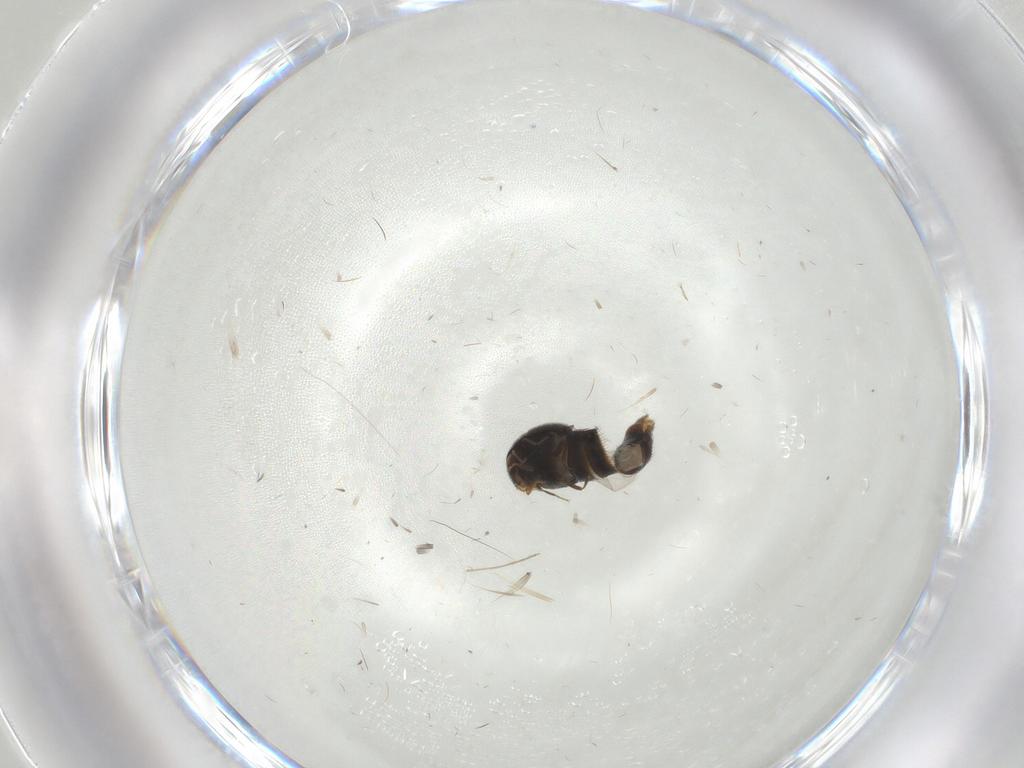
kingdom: Animalia
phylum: Arthropoda
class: Insecta
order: Coleoptera
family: Staphylinidae
